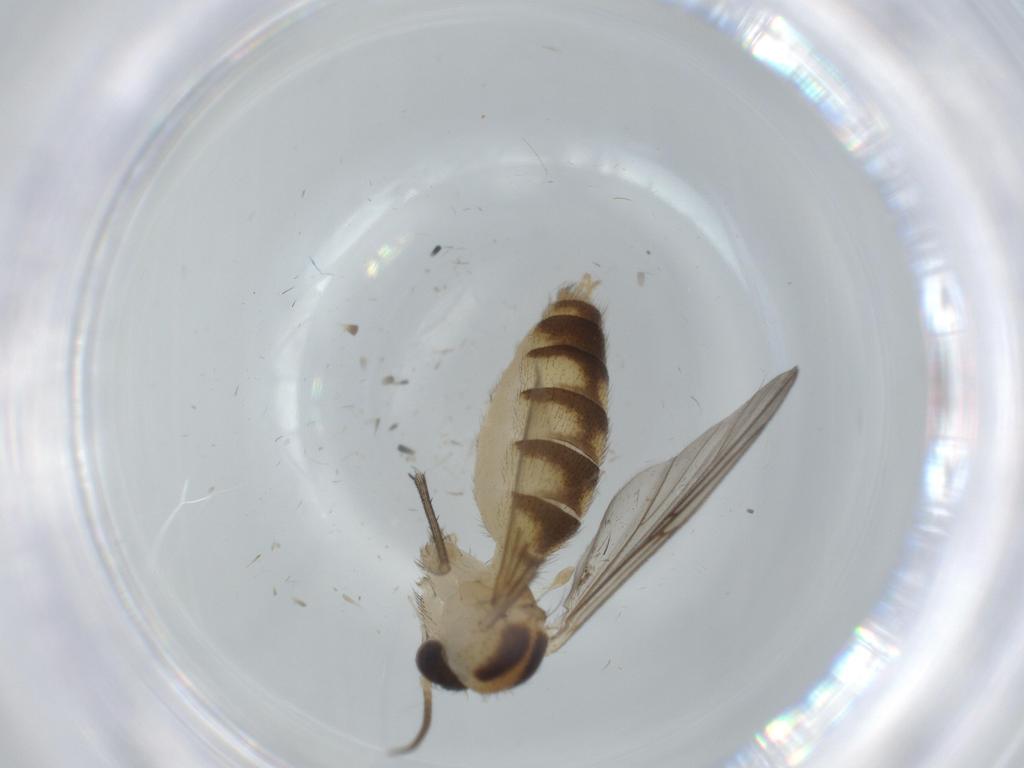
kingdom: Animalia
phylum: Arthropoda
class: Insecta
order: Diptera
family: Mycetophilidae
